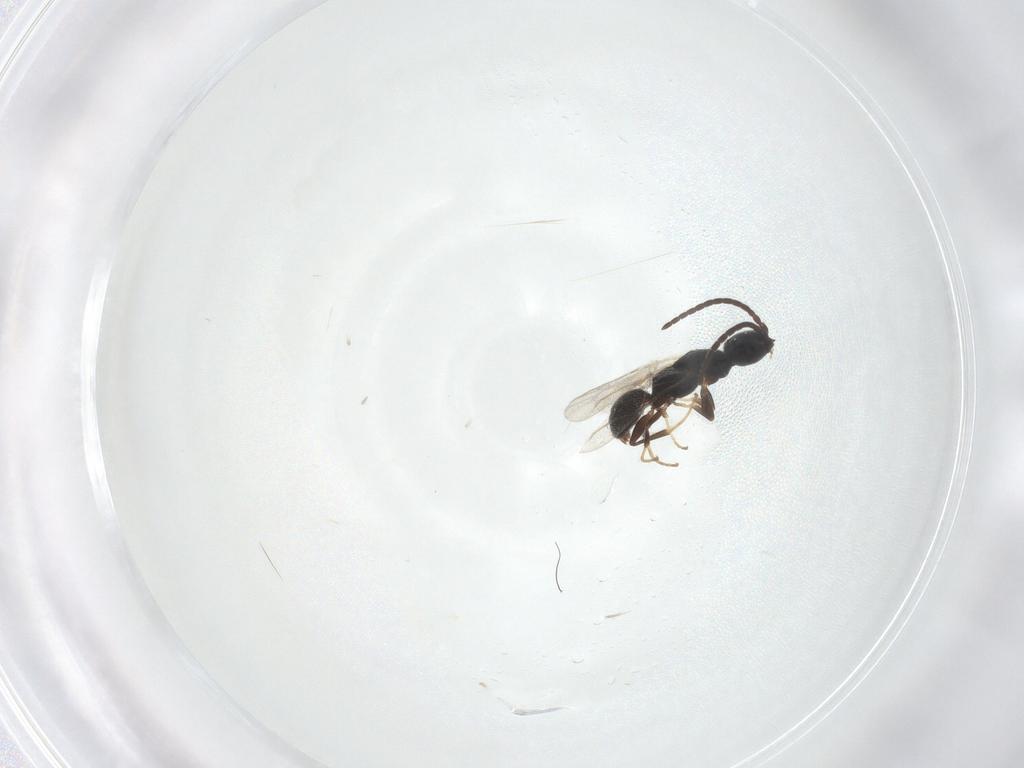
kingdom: Animalia
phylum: Arthropoda
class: Insecta
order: Hymenoptera
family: Bethylidae
